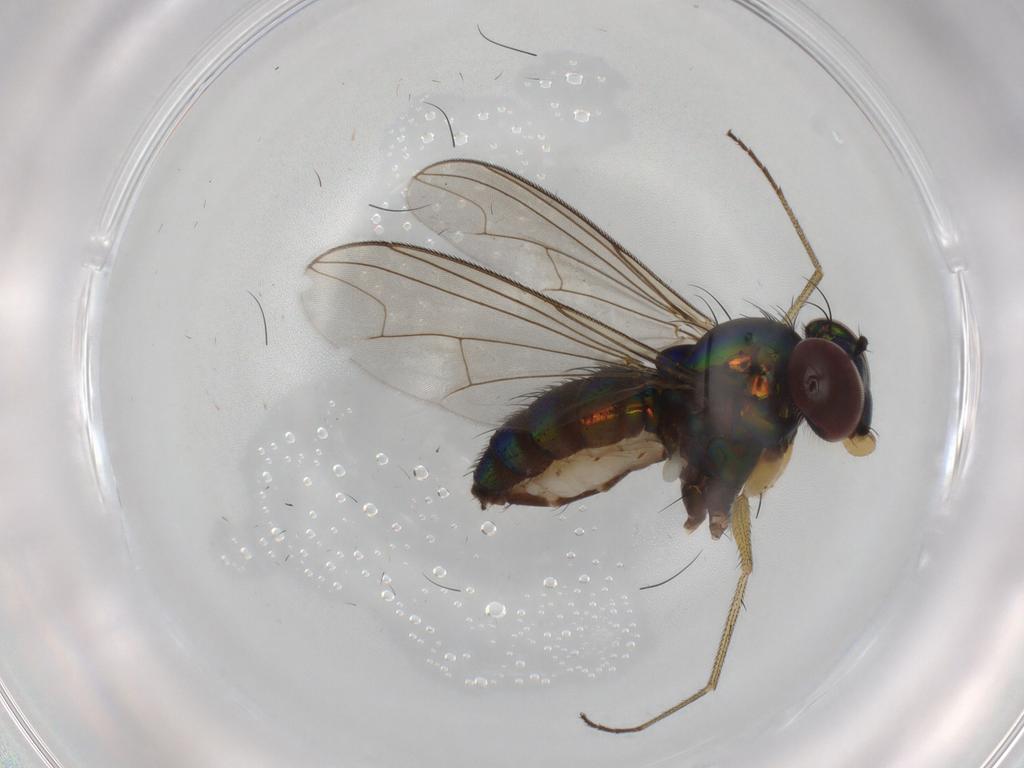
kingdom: Animalia
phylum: Arthropoda
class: Insecta
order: Diptera
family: Dolichopodidae
